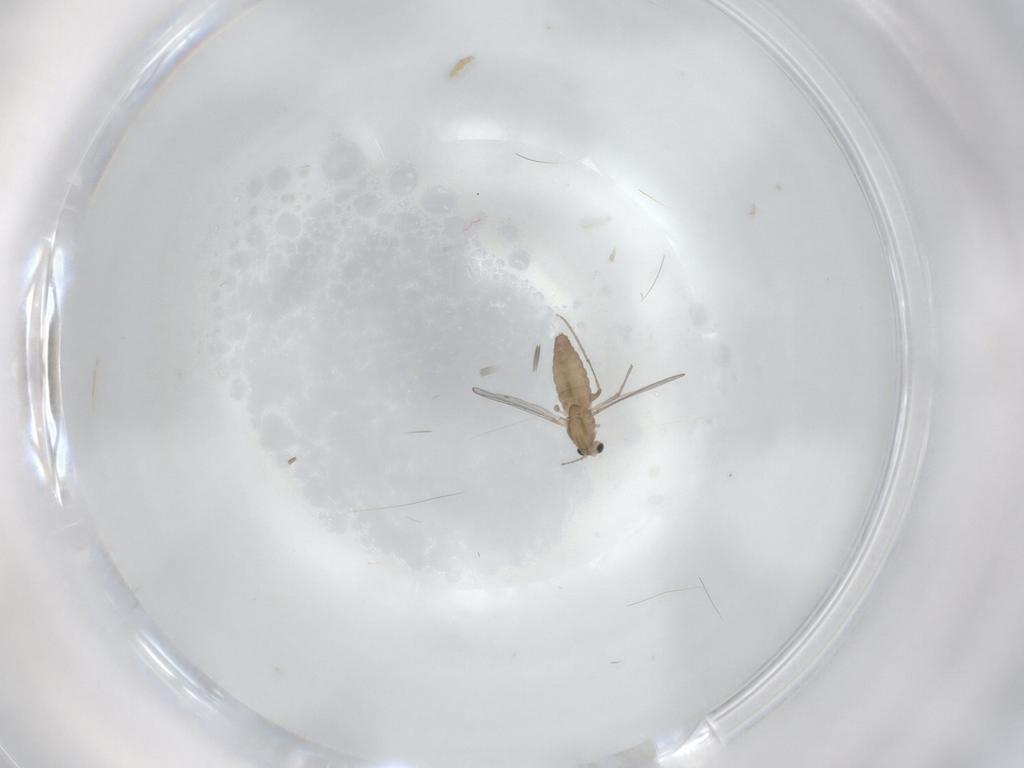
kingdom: Animalia
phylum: Arthropoda
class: Insecta
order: Diptera
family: Chironomidae
